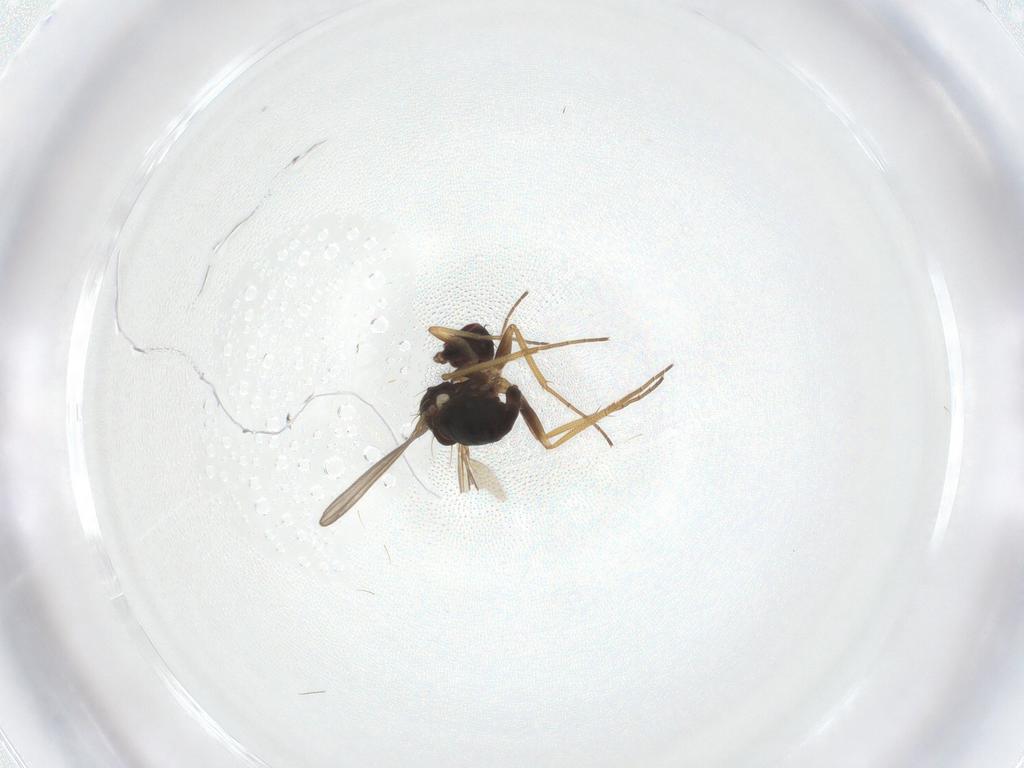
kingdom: Animalia
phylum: Arthropoda
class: Insecta
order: Diptera
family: Dolichopodidae
